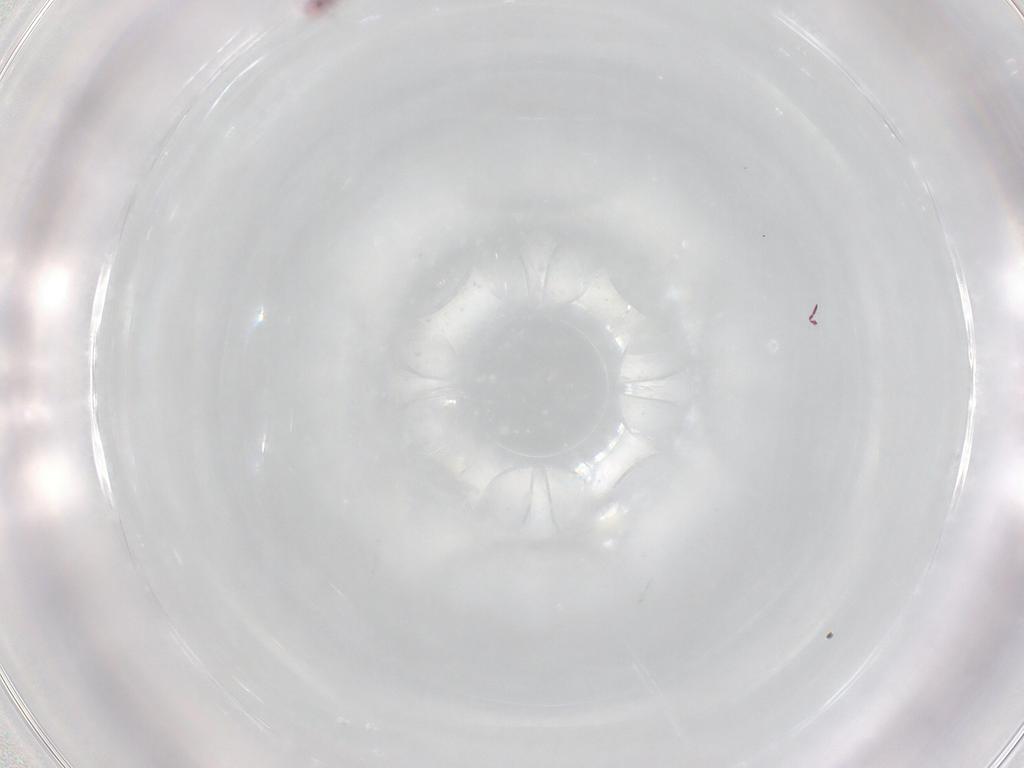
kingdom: Animalia
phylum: Arthropoda
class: Collembola
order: Symphypleona
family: Sminthurididae
